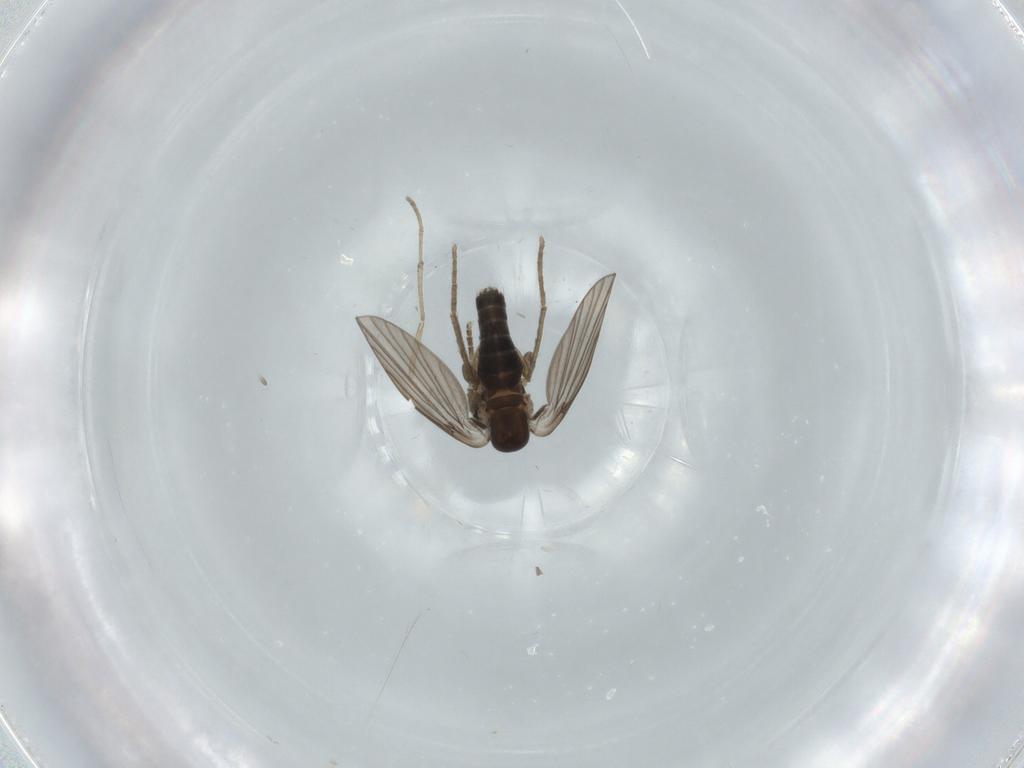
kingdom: Animalia
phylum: Arthropoda
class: Insecta
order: Diptera
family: Psychodidae
